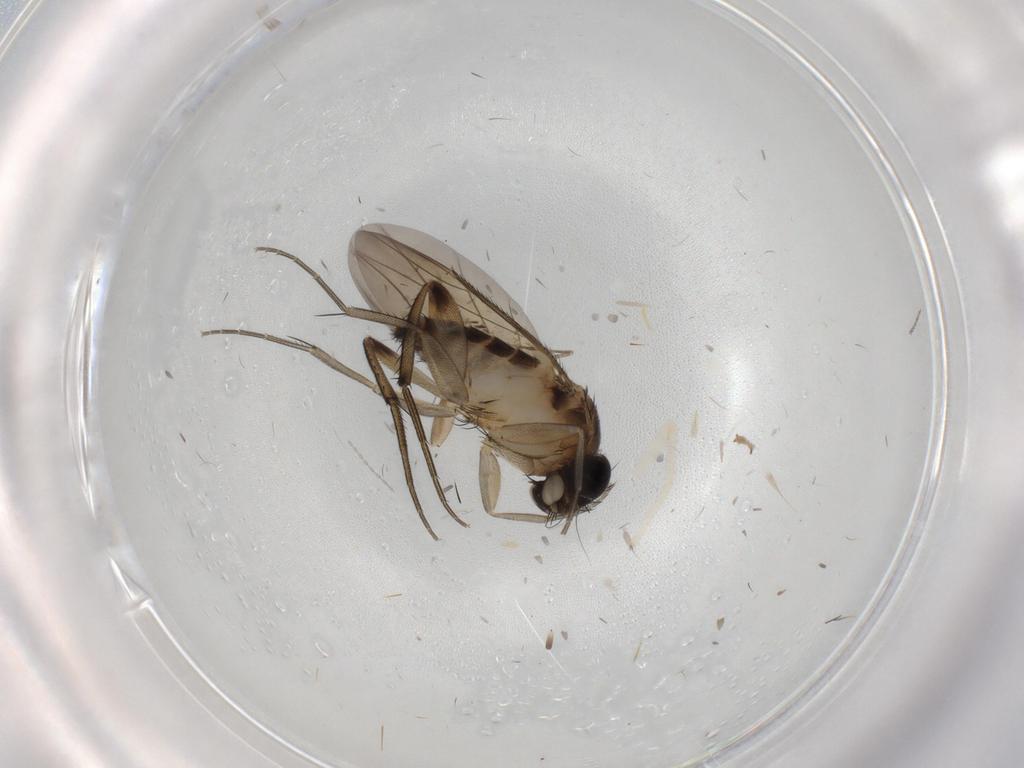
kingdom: Animalia
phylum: Arthropoda
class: Insecta
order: Diptera
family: Phoridae
